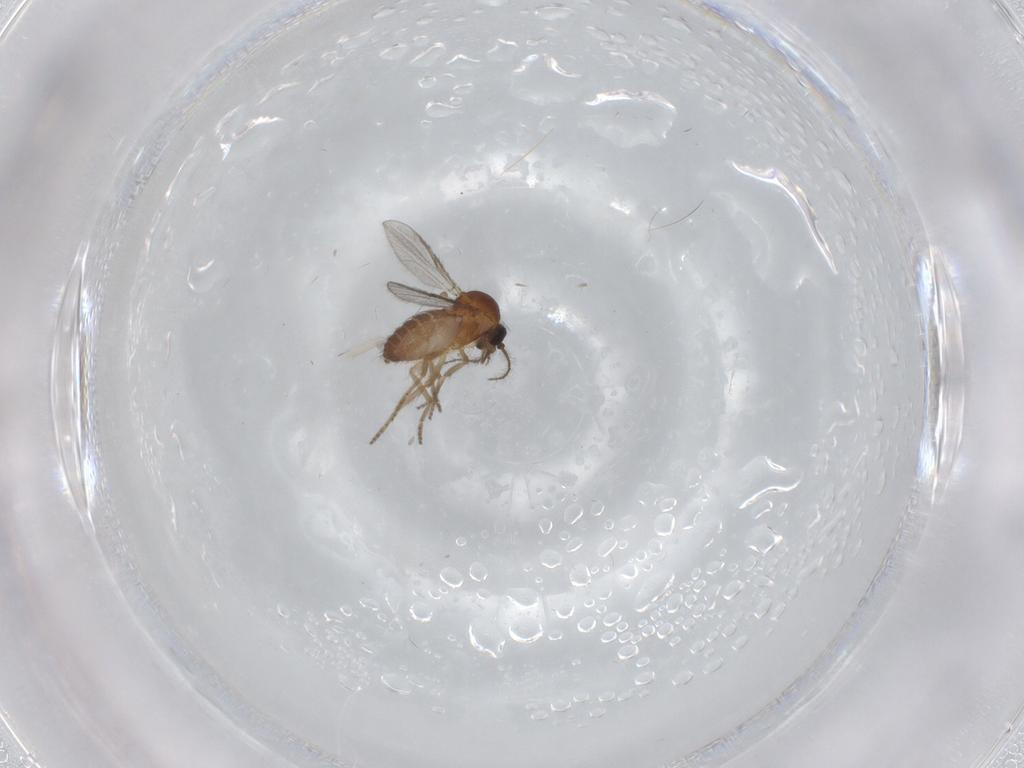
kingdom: Animalia
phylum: Arthropoda
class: Insecta
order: Diptera
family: Ceratopogonidae
